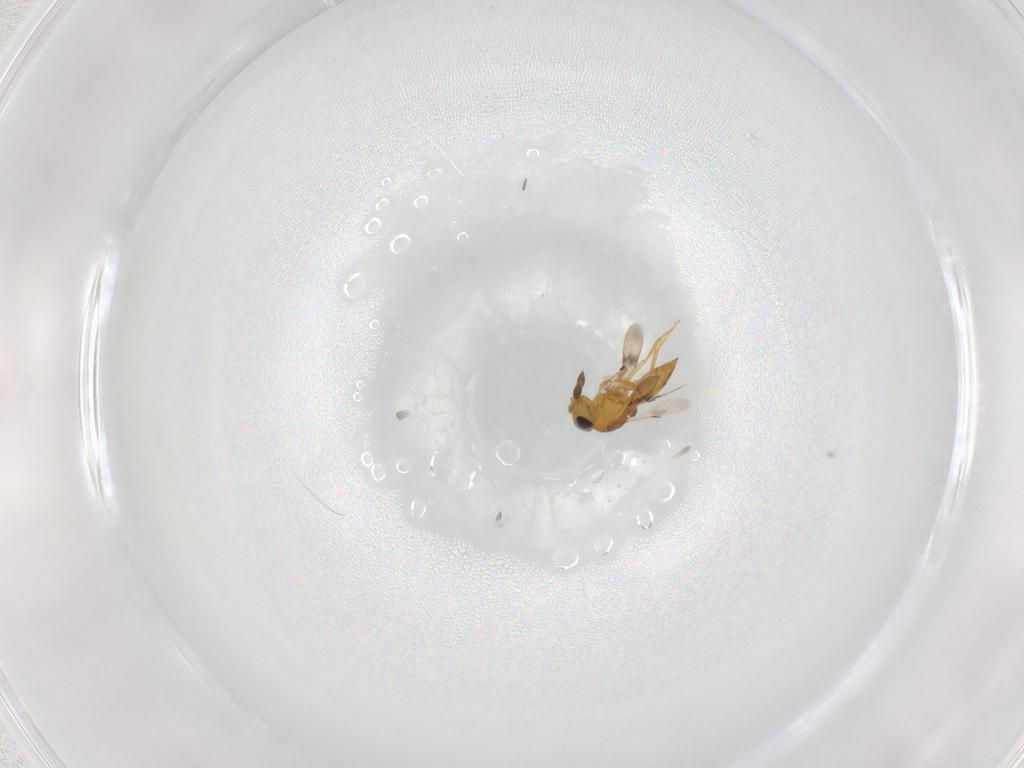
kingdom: Animalia
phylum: Arthropoda
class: Insecta
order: Hymenoptera
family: Scelionidae
